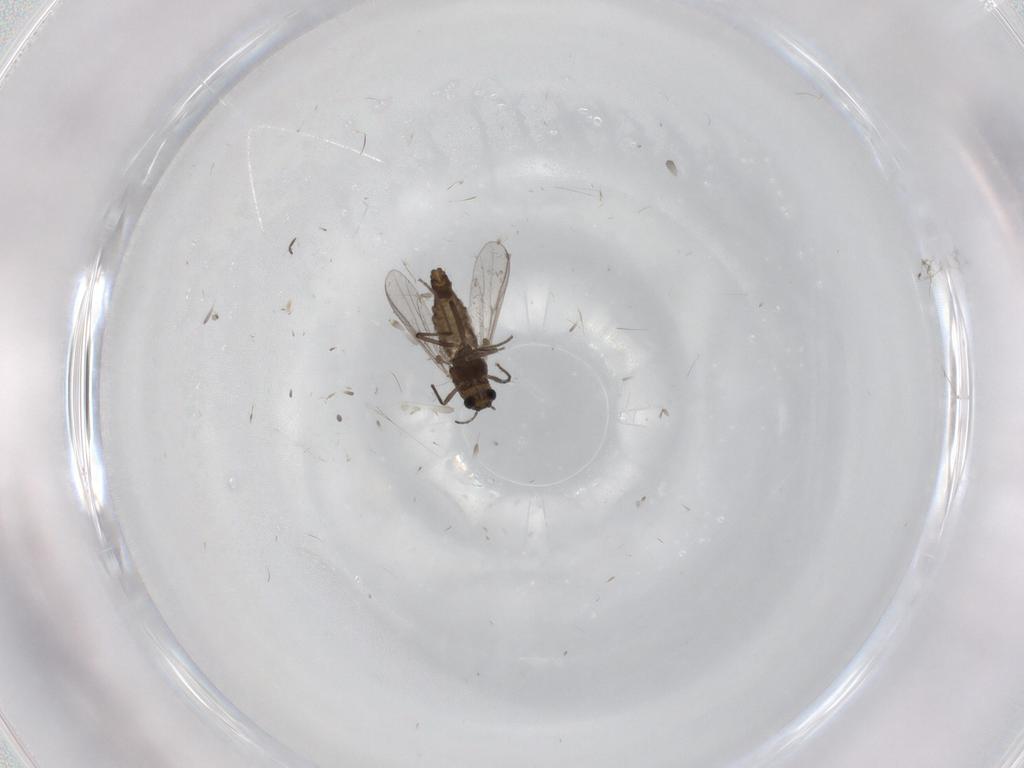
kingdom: Animalia
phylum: Arthropoda
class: Insecta
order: Diptera
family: Chironomidae
